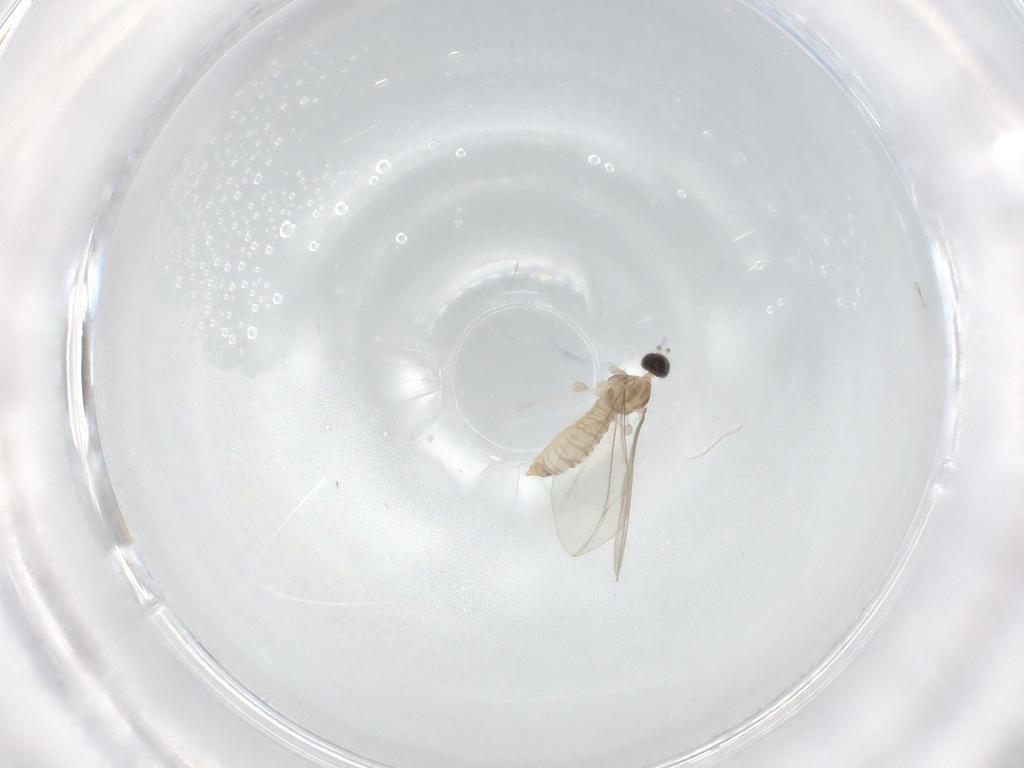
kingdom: Animalia
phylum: Arthropoda
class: Insecta
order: Diptera
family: Cecidomyiidae
